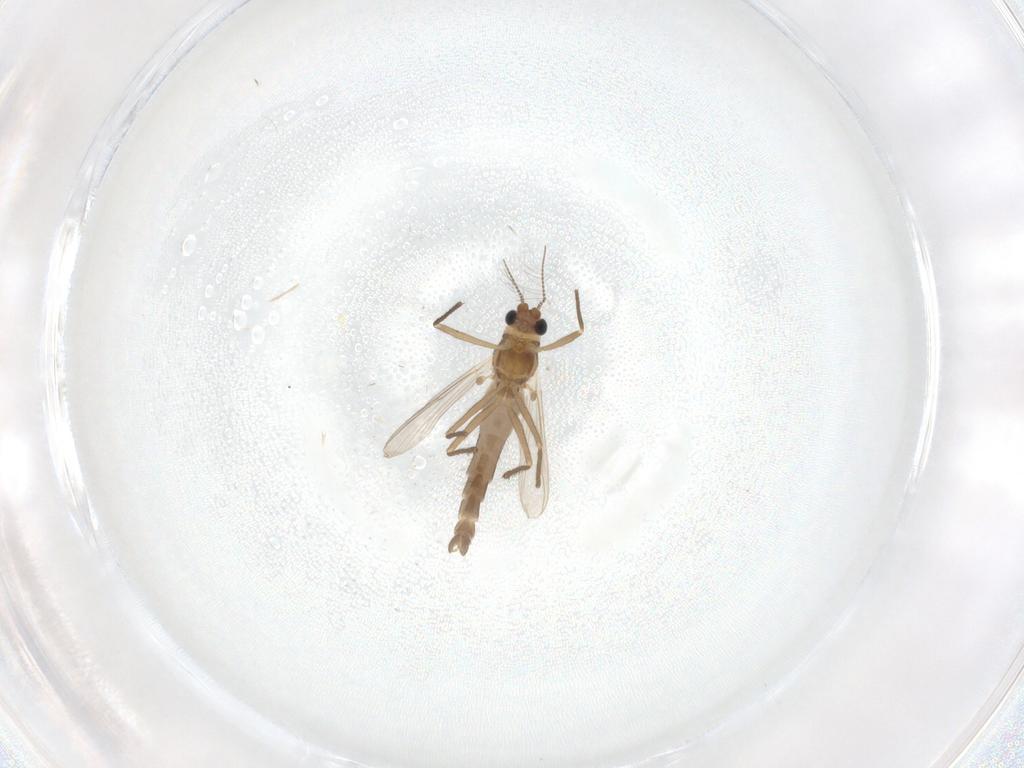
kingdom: Animalia
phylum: Arthropoda
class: Insecta
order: Diptera
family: Chironomidae
